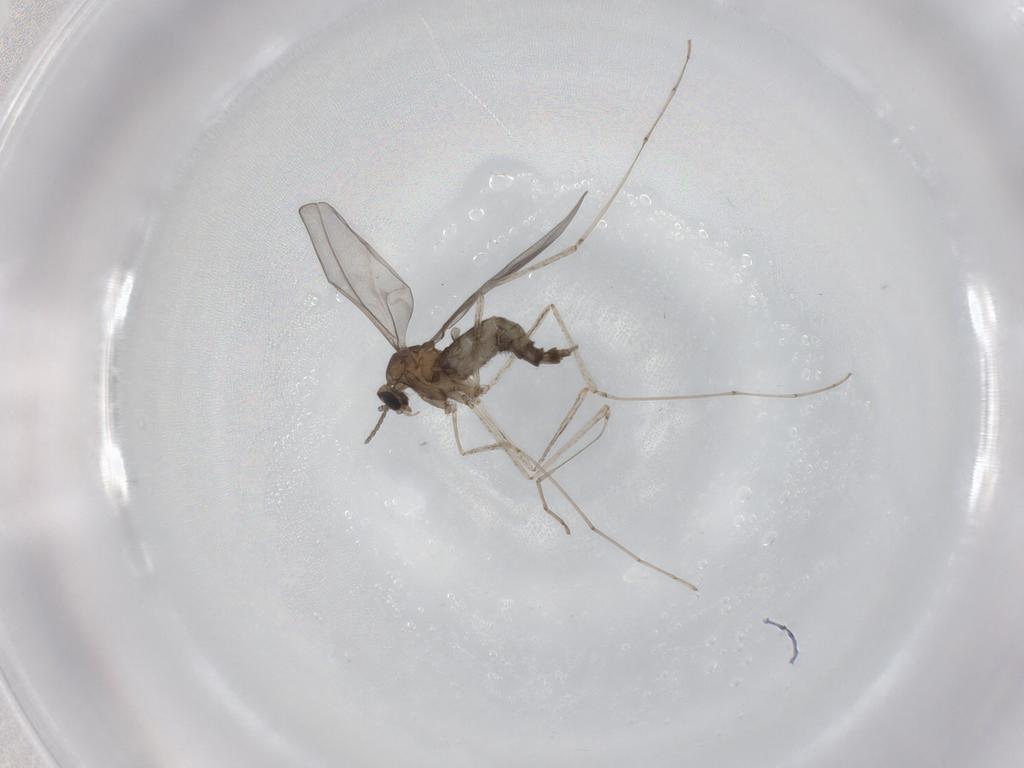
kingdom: Animalia
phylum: Arthropoda
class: Insecta
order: Diptera
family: Cecidomyiidae
